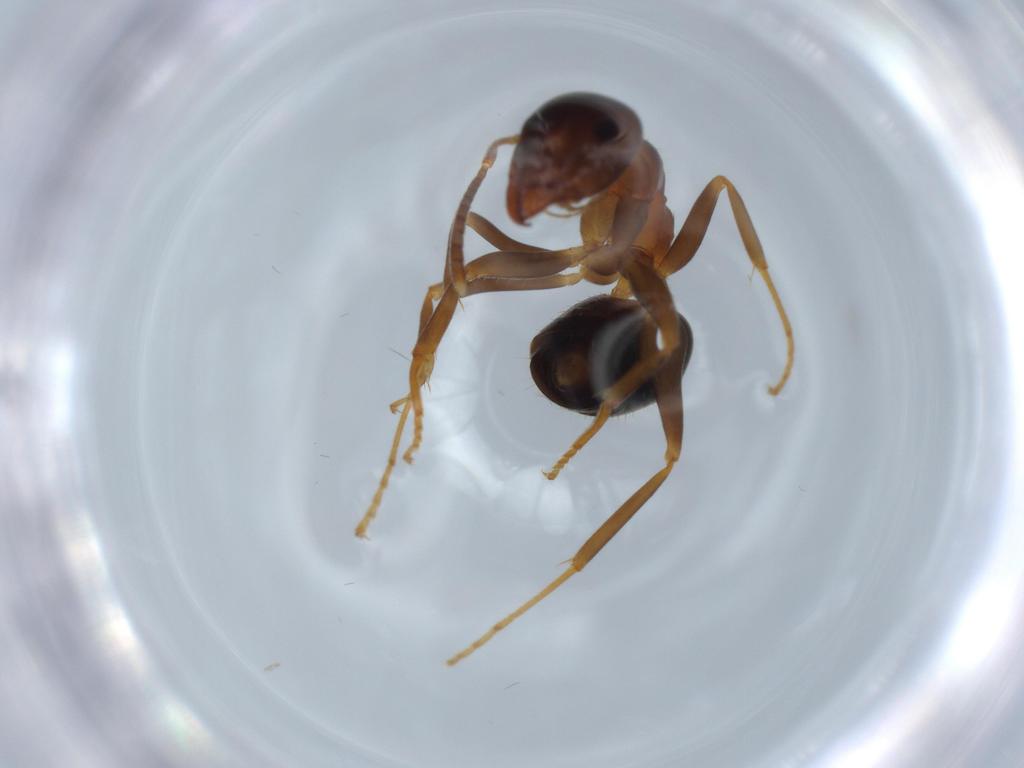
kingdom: Animalia
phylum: Arthropoda
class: Insecta
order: Hymenoptera
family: Formicidae
